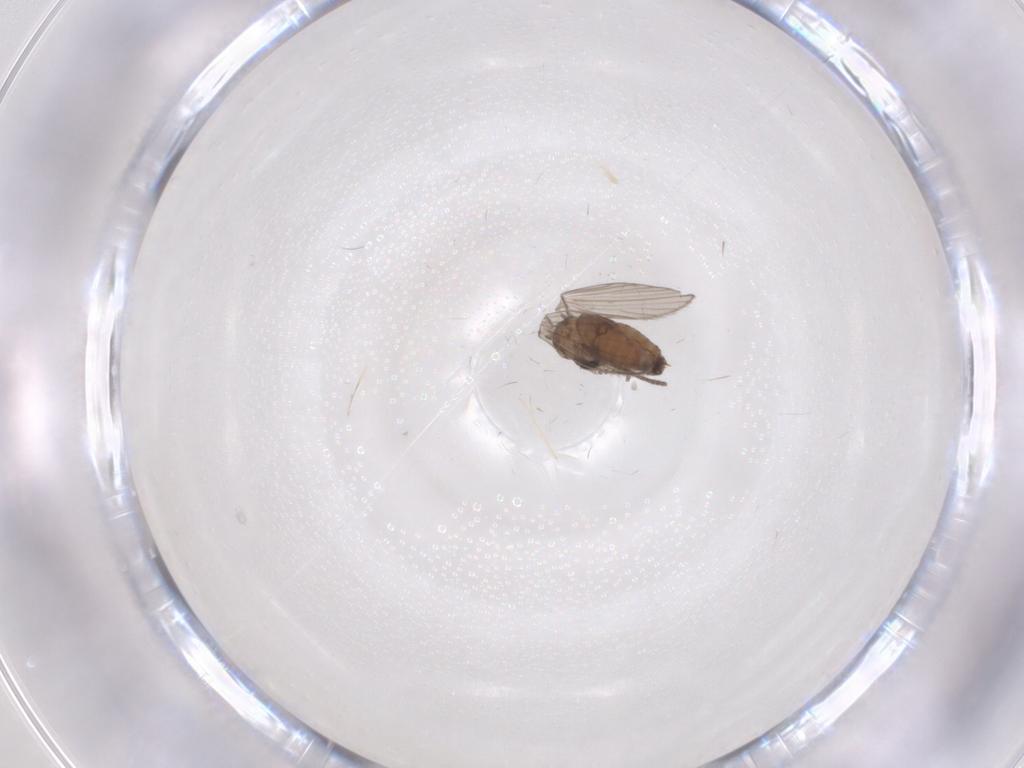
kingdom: Animalia
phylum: Arthropoda
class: Insecta
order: Diptera
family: Psychodidae
